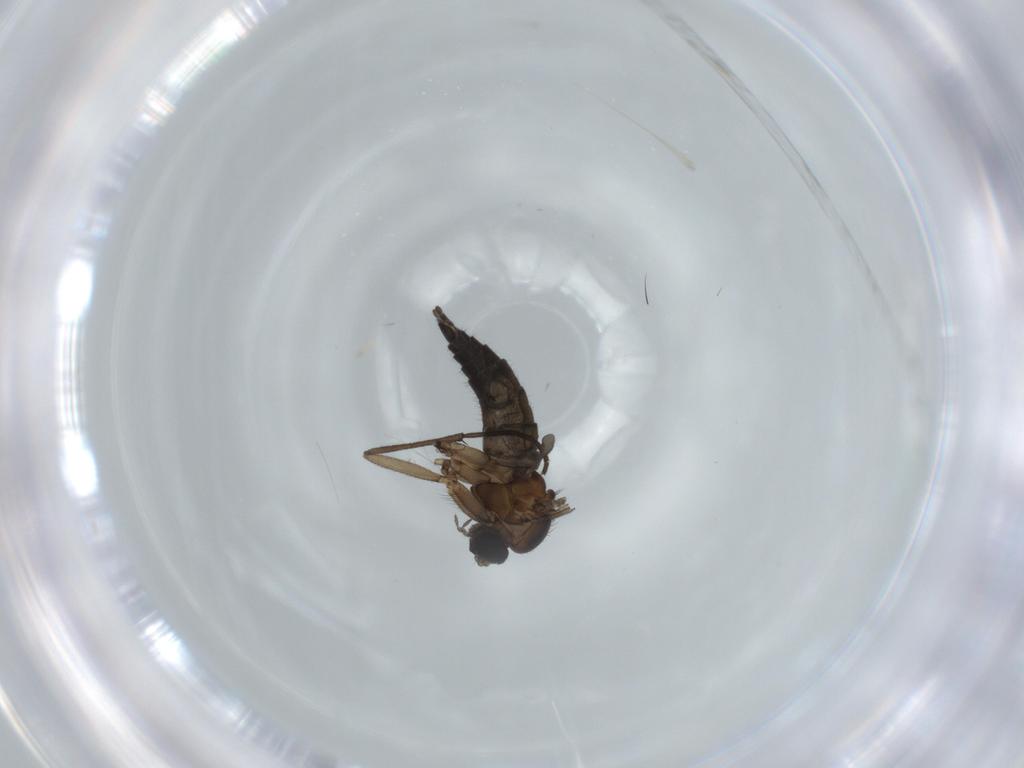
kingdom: Animalia
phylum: Arthropoda
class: Insecta
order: Diptera
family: Sciaridae
